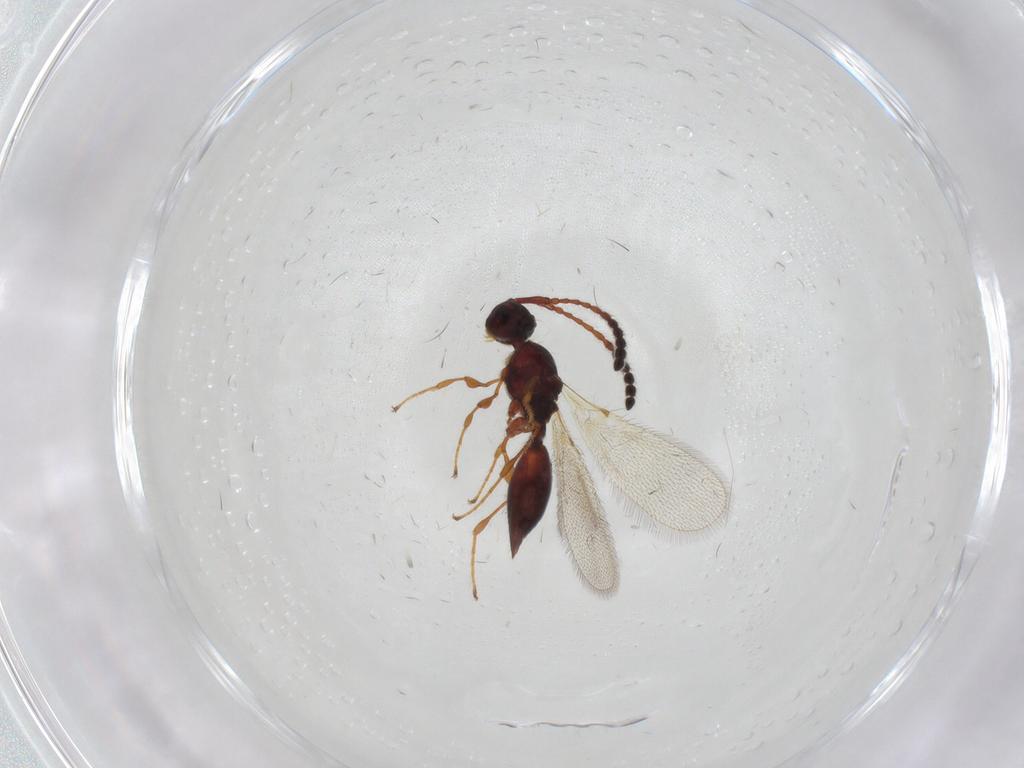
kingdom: Animalia
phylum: Arthropoda
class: Insecta
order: Hymenoptera
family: Diapriidae
